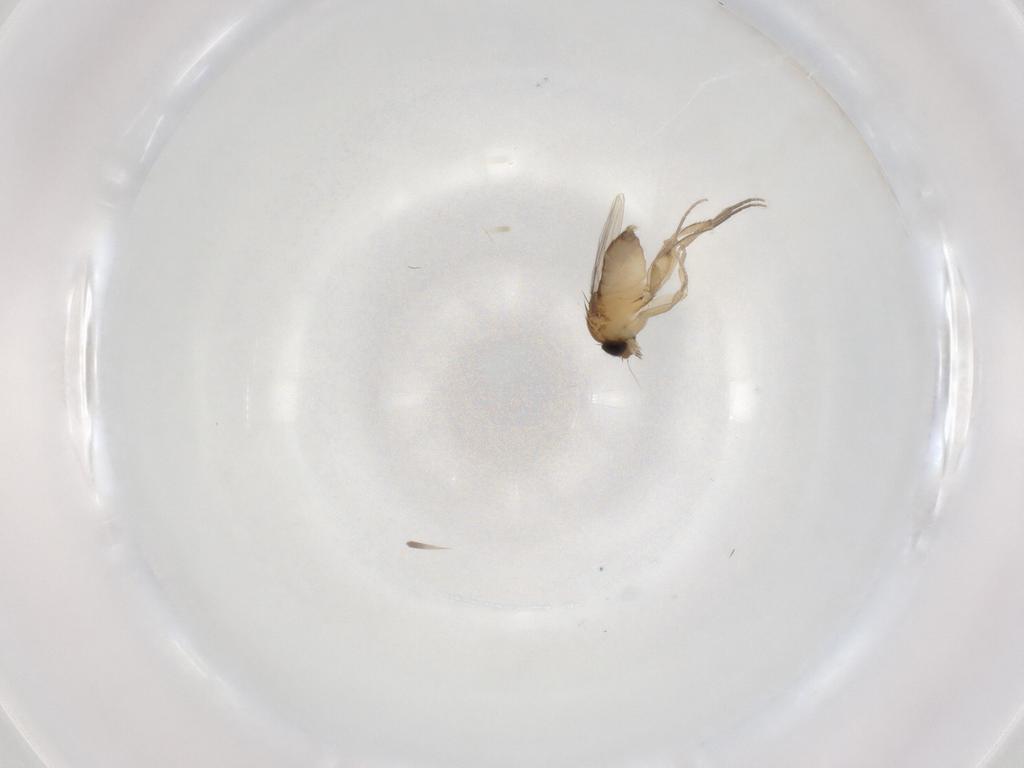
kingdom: Animalia
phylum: Arthropoda
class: Insecta
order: Diptera
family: Phoridae
